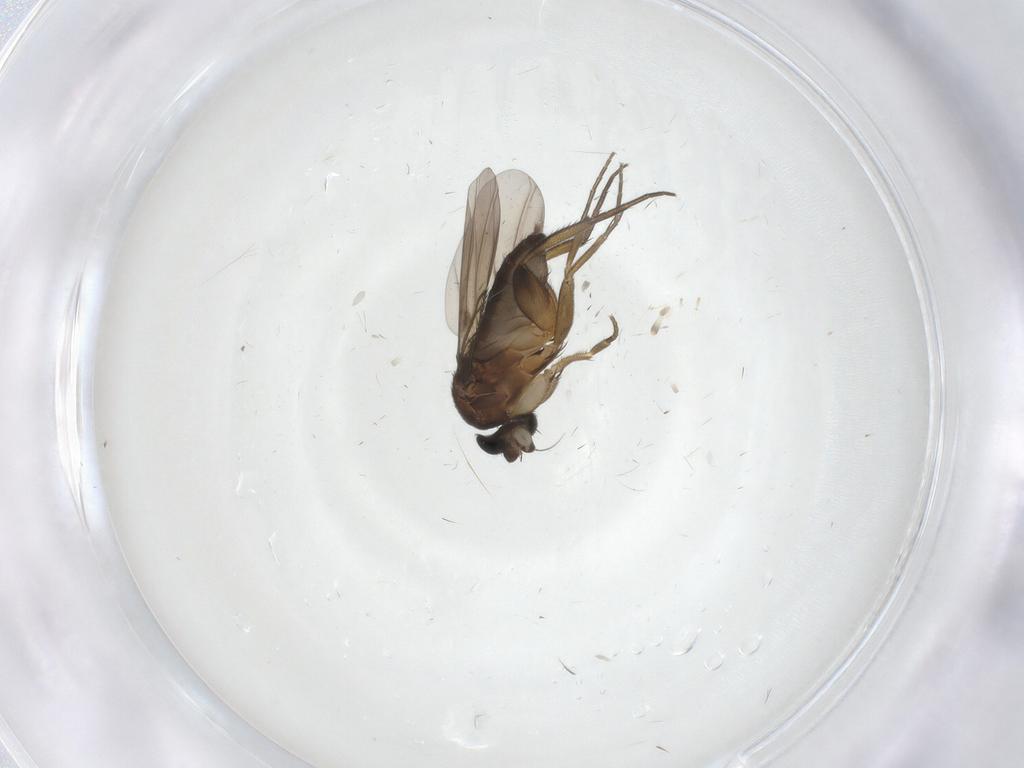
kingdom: Animalia
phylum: Arthropoda
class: Insecta
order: Diptera
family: Phoridae
